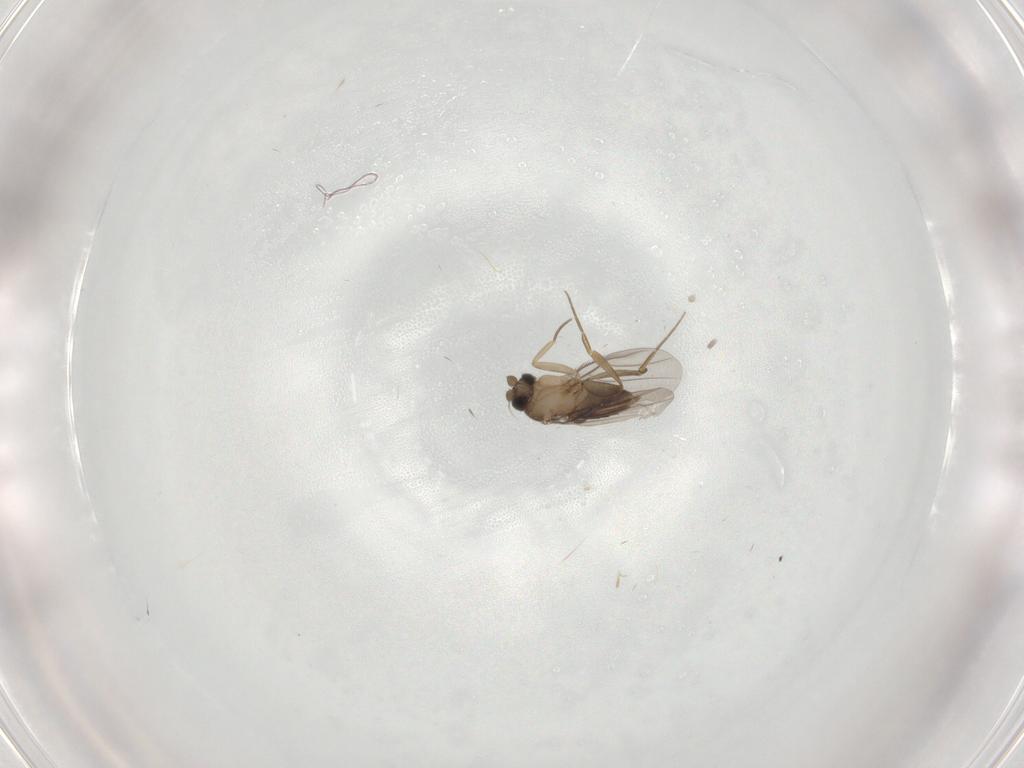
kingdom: Animalia
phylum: Arthropoda
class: Insecta
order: Diptera
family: Phoridae
